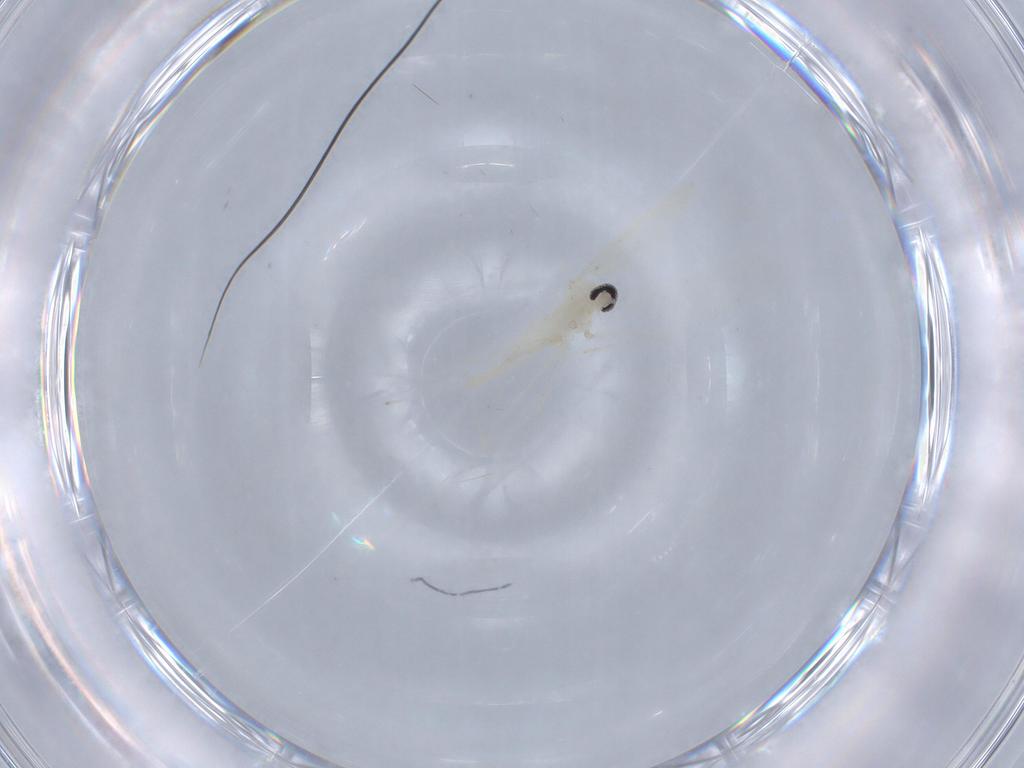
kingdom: Animalia
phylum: Arthropoda
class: Insecta
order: Diptera
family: Cecidomyiidae
